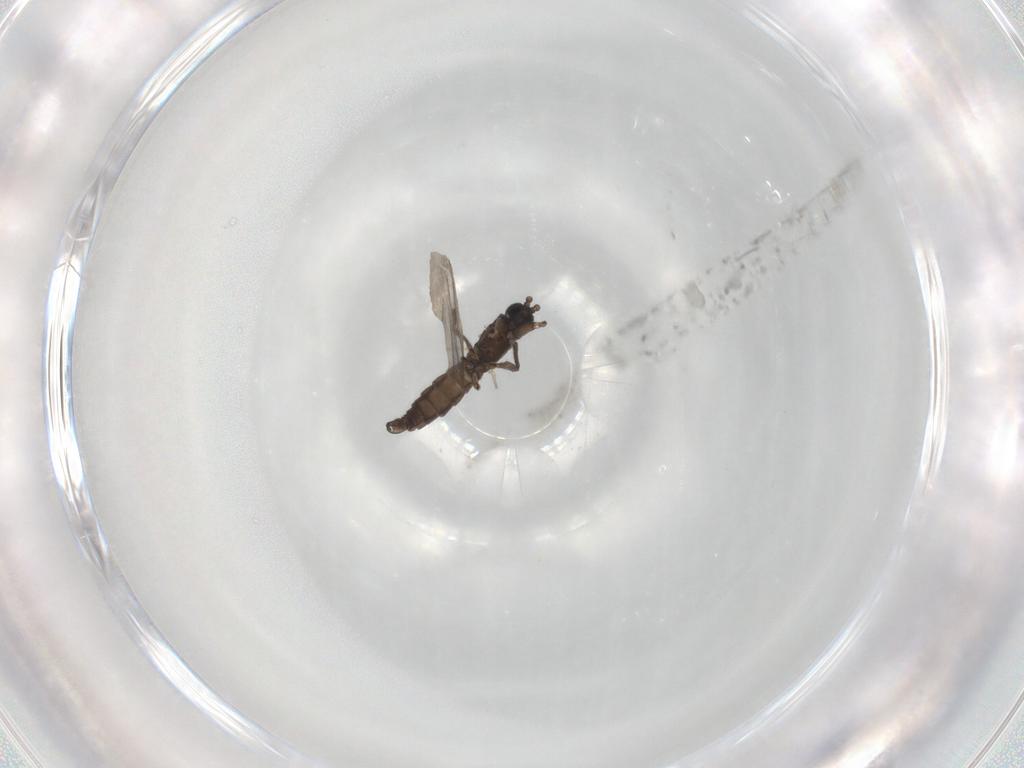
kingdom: Animalia
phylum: Arthropoda
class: Insecta
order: Diptera
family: Sciaridae
